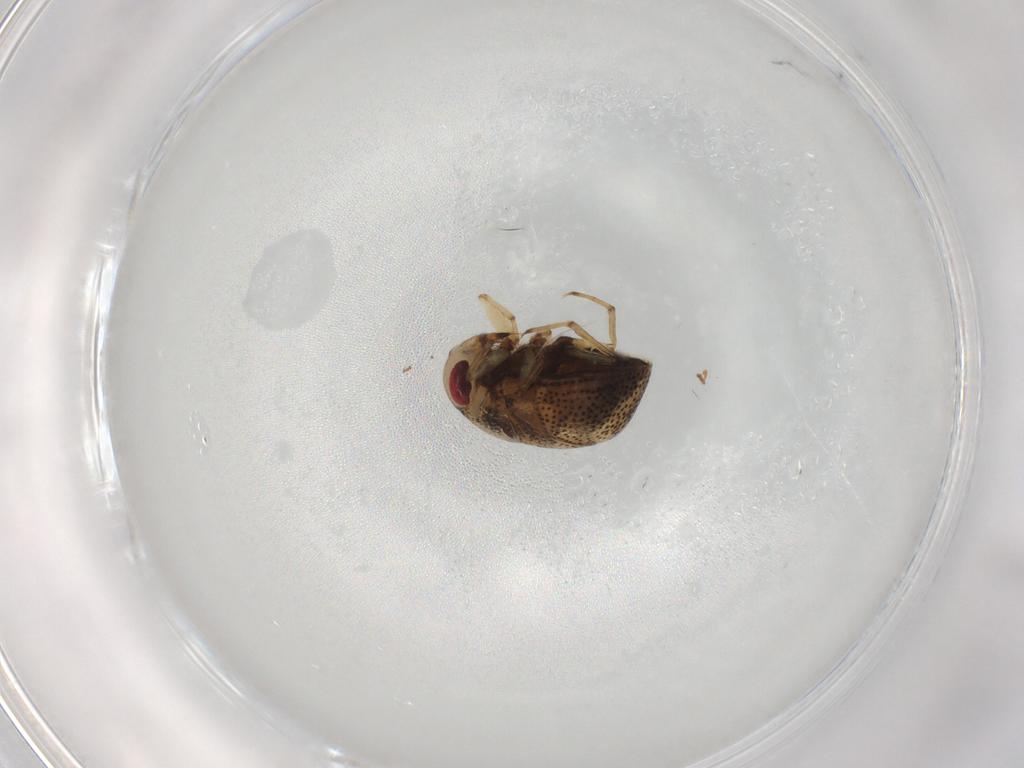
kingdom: Animalia
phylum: Arthropoda
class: Insecta
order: Hemiptera
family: Pleidae
